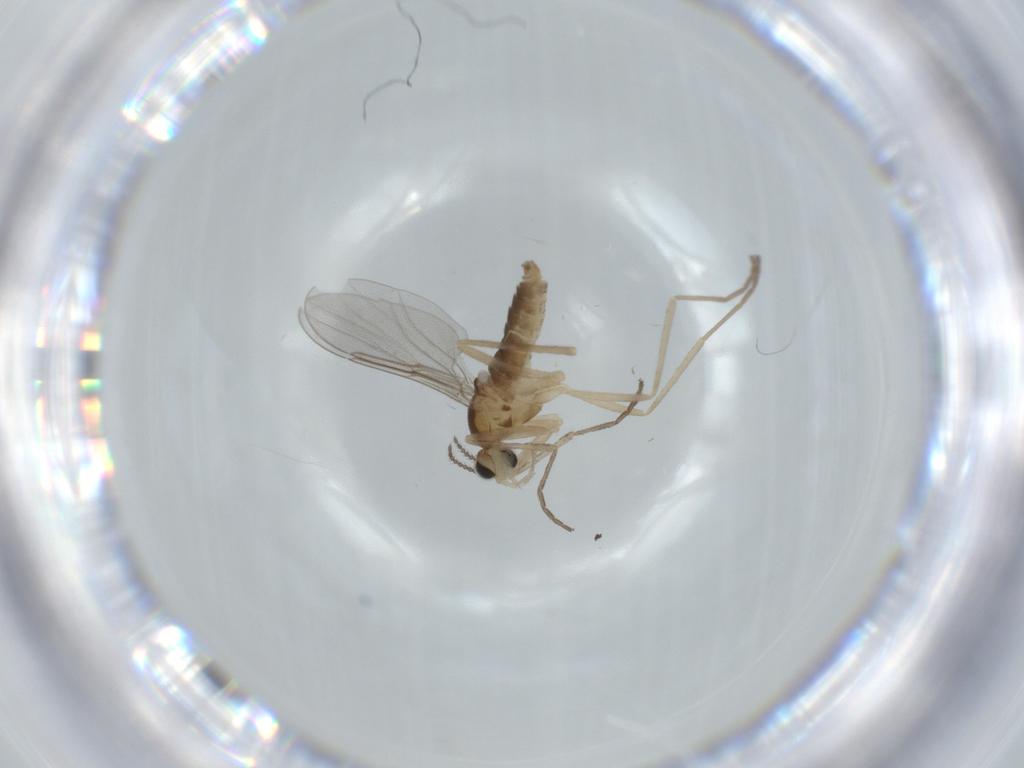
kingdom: Animalia
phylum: Arthropoda
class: Insecta
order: Diptera
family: Cecidomyiidae
